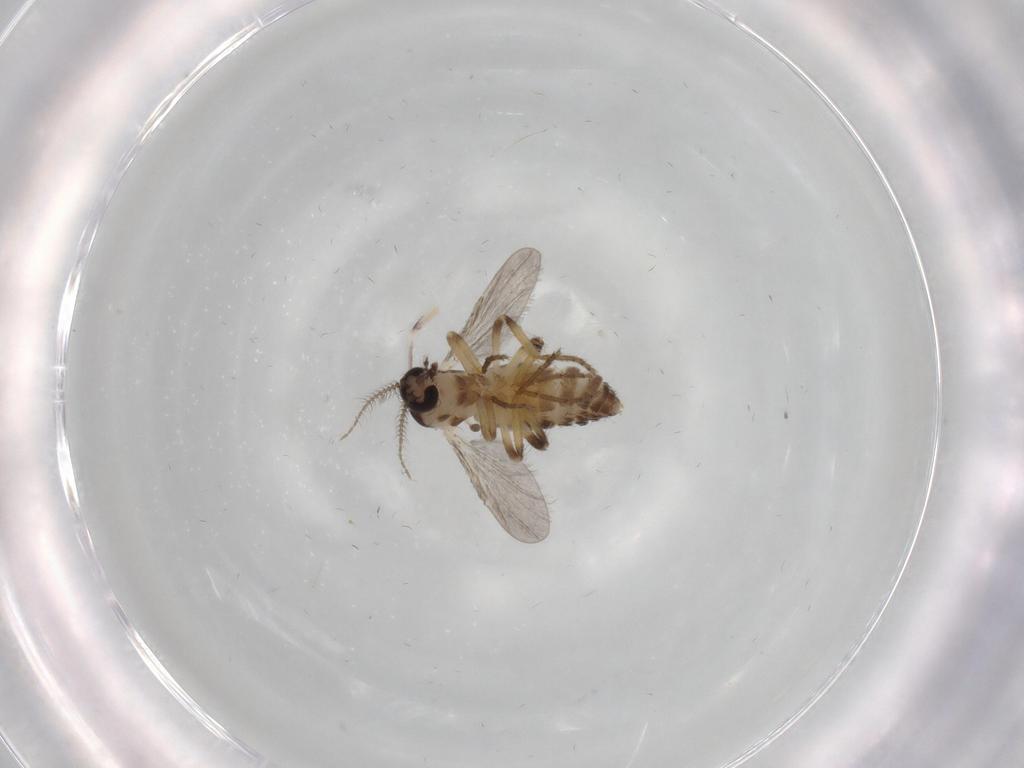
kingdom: Animalia
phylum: Arthropoda
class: Insecta
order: Diptera
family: Ceratopogonidae
